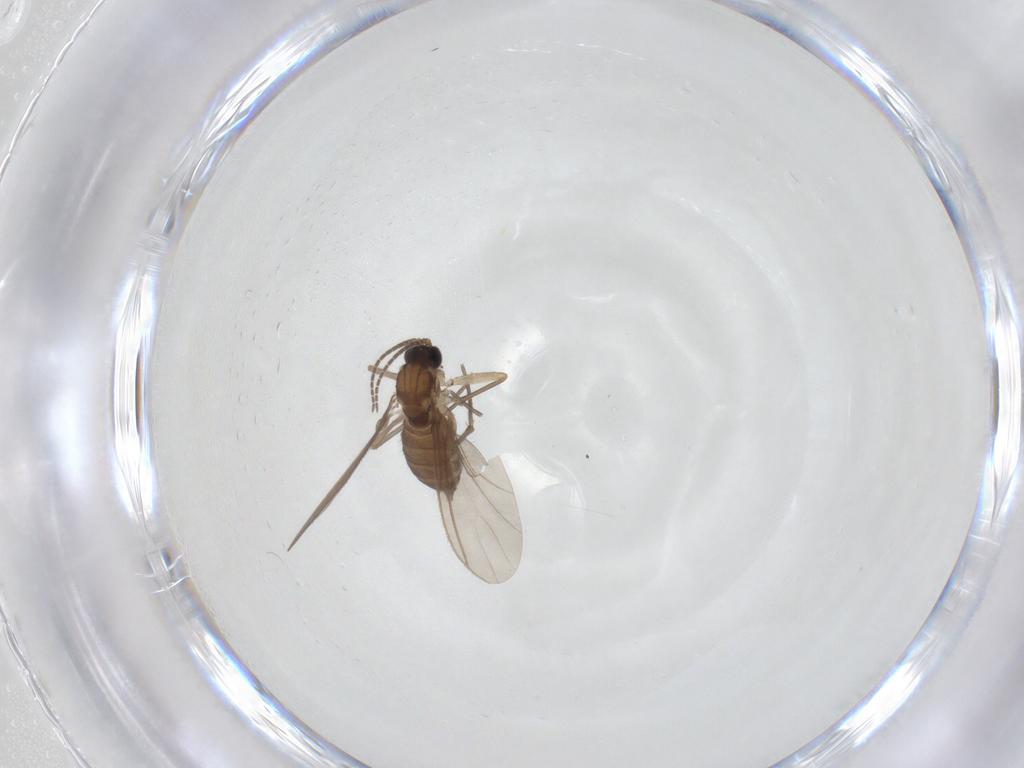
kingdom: Animalia
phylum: Arthropoda
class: Insecta
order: Diptera
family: Sciaridae
